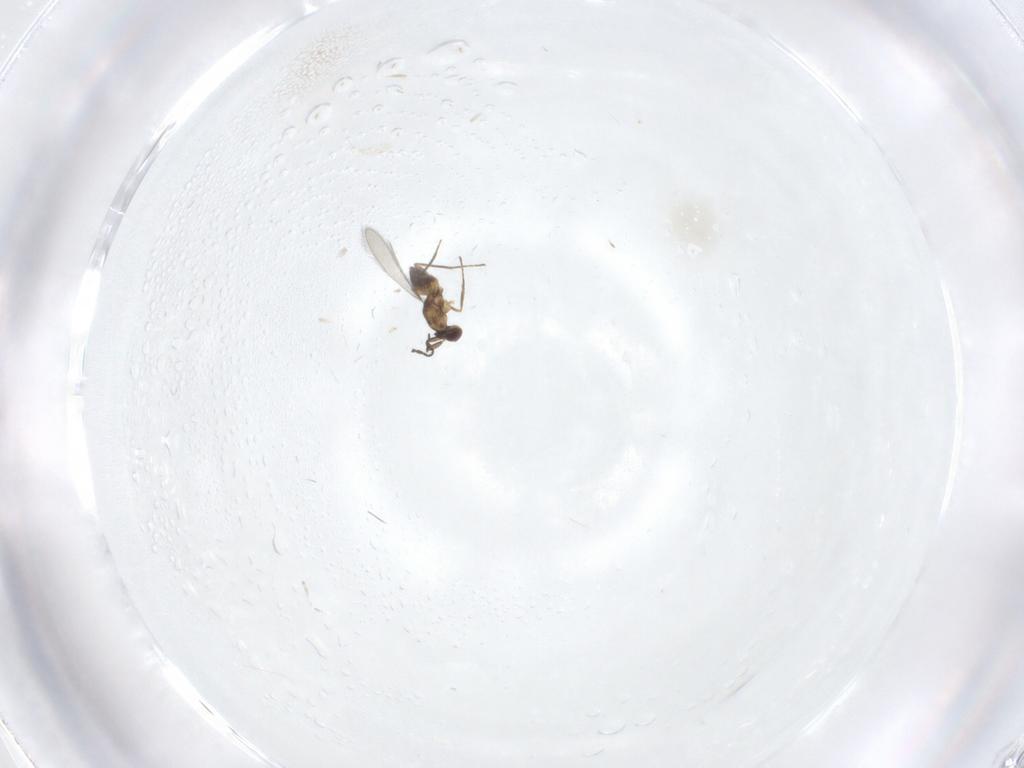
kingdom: Animalia
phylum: Arthropoda
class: Insecta
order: Hymenoptera
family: Mymaridae
